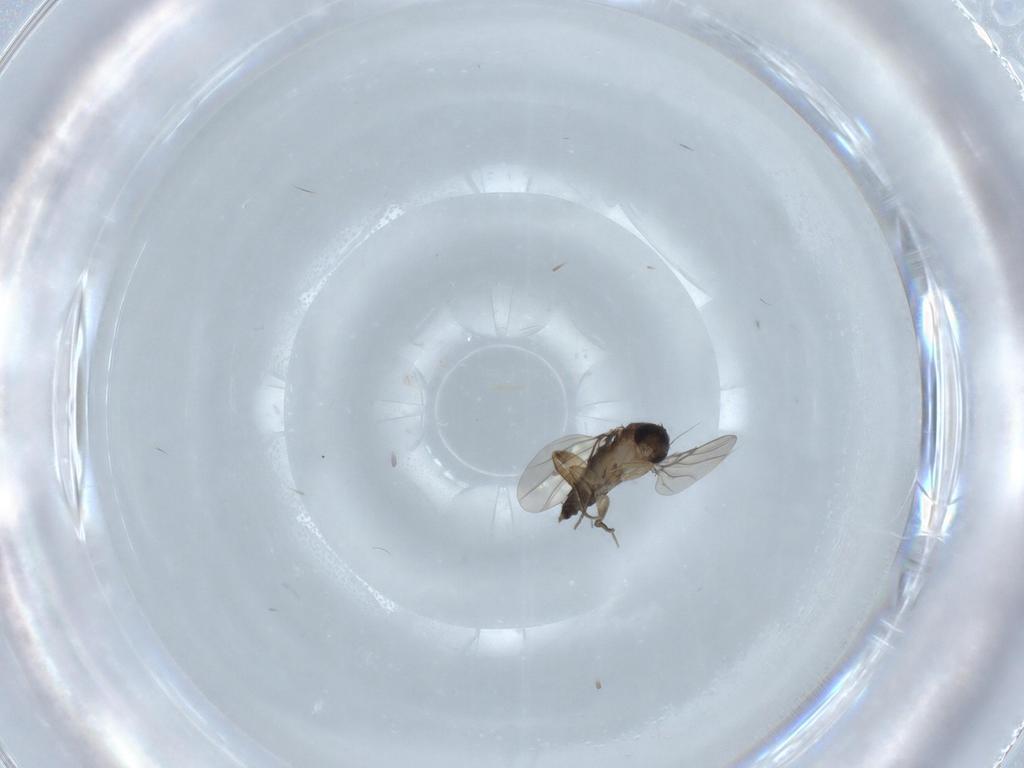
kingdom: Animalia
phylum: Arthropoda
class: Insecta
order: Diptera
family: Phoridae
